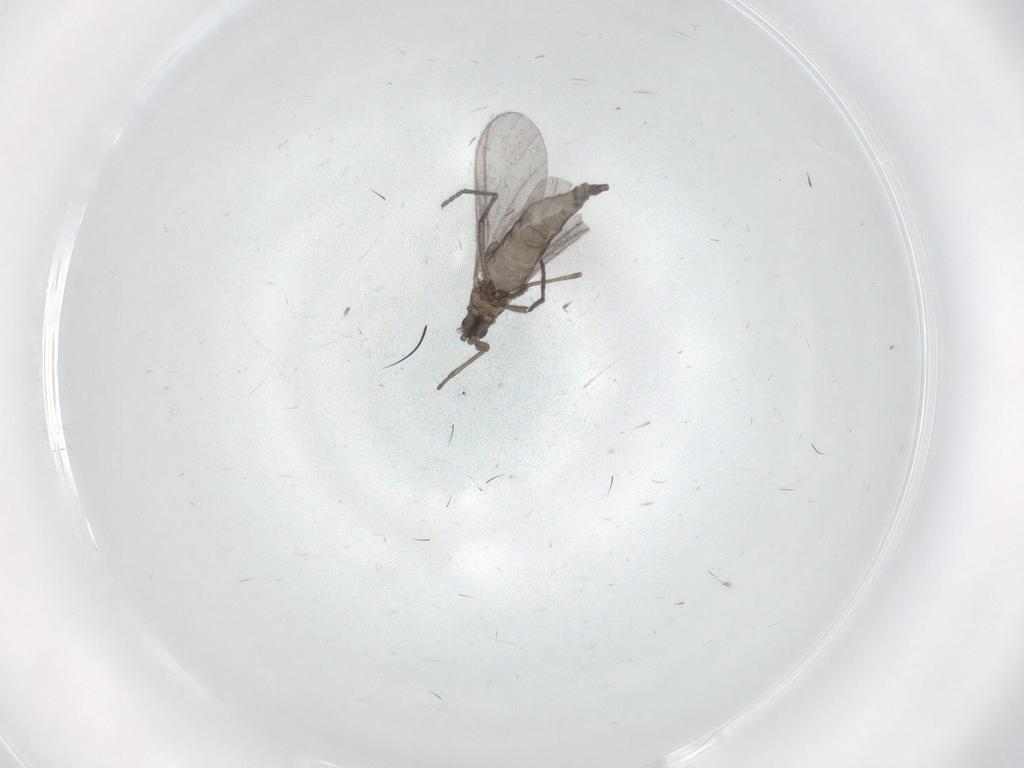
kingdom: Animalia
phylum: Arthropoda
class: Insecta
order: Diptera
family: Sciaridae
